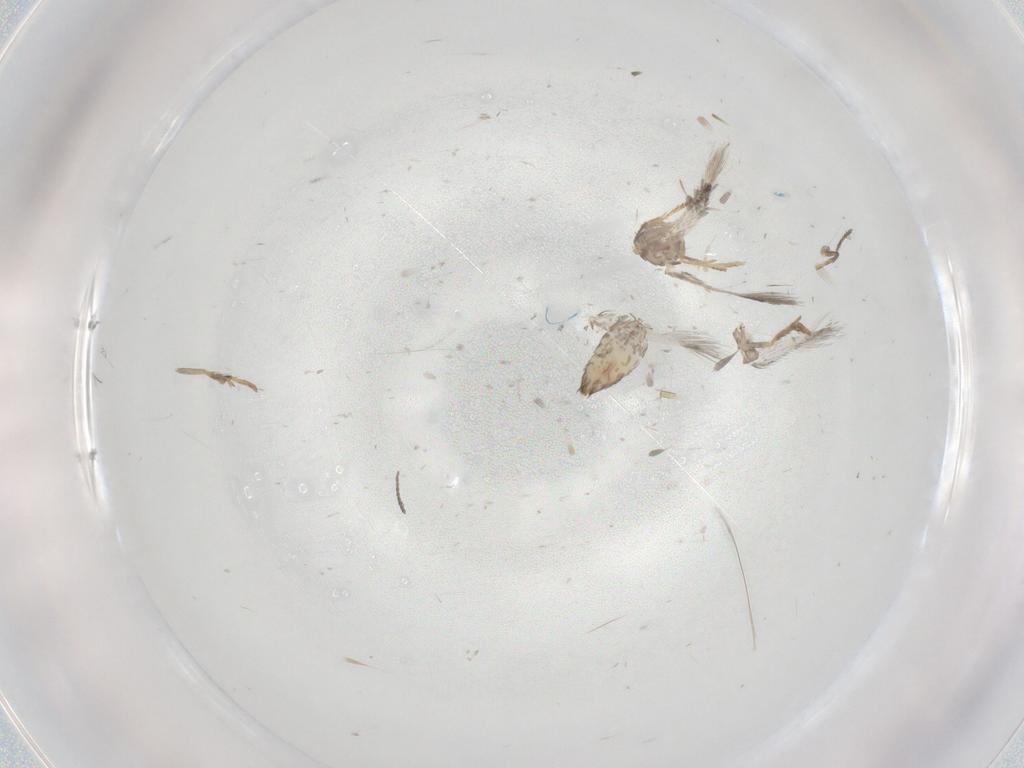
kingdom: Animalia
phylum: Arthropoda
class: Insecta
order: Lepidoptera
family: Nepticulidae
